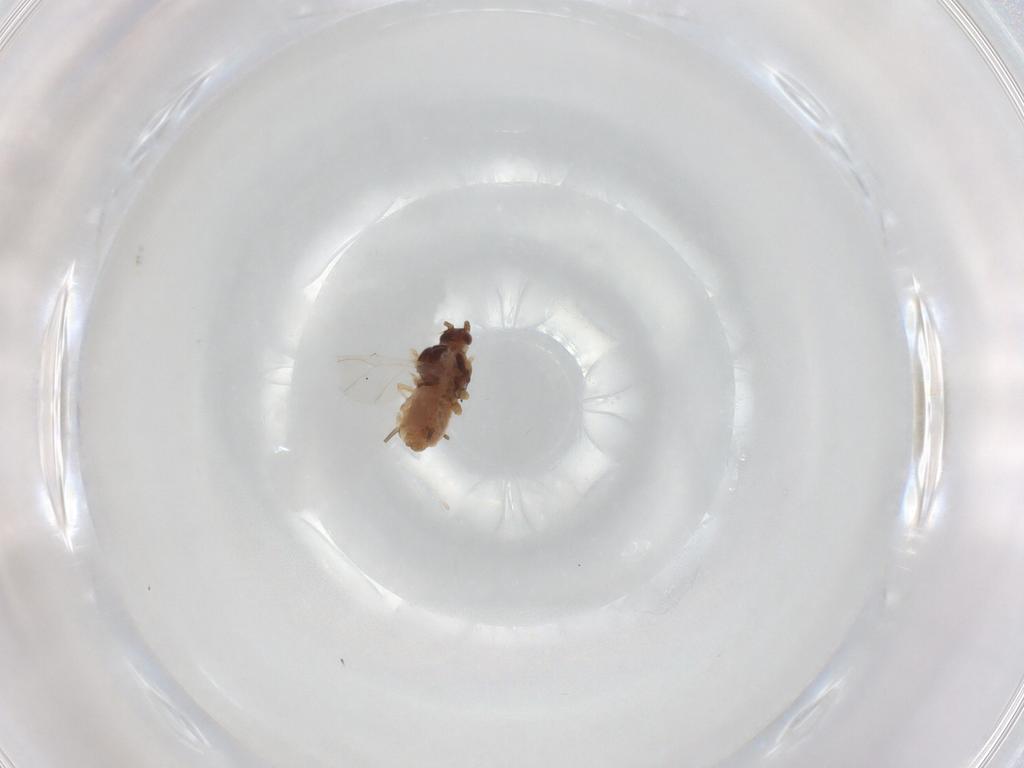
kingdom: Animalia
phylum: Arthropoda
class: Insecta
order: Hemiptera
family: Aphididae
